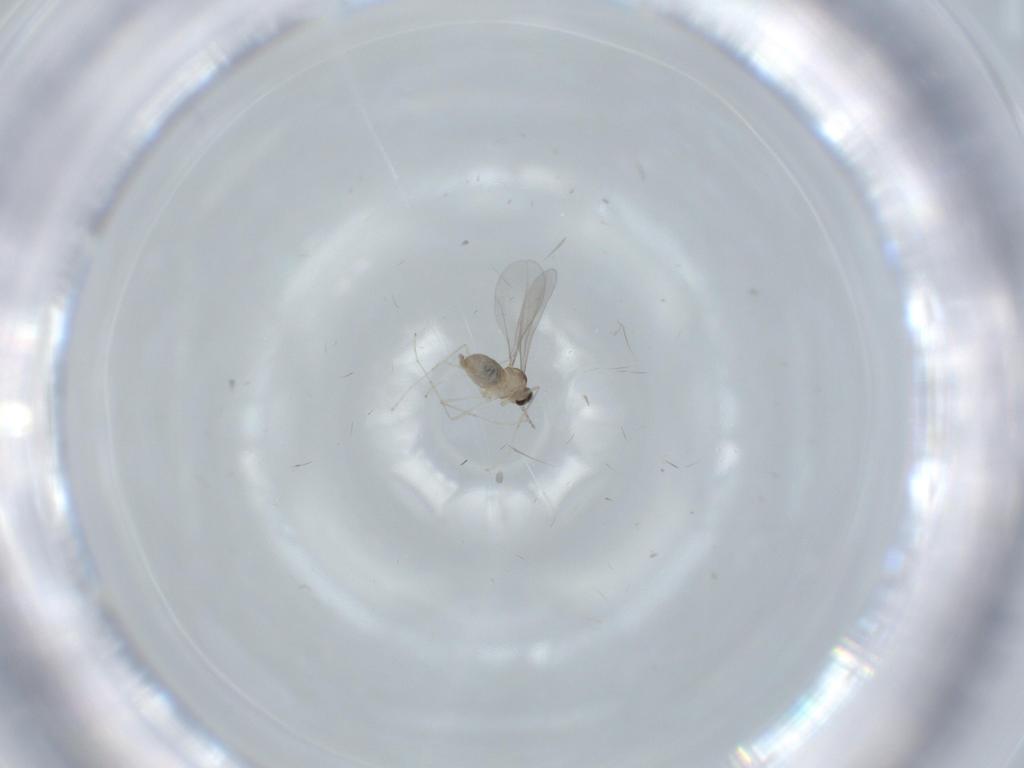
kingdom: Animalia
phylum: Arthropoda
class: Insecta
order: Diptera
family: Cecidomyiidae
